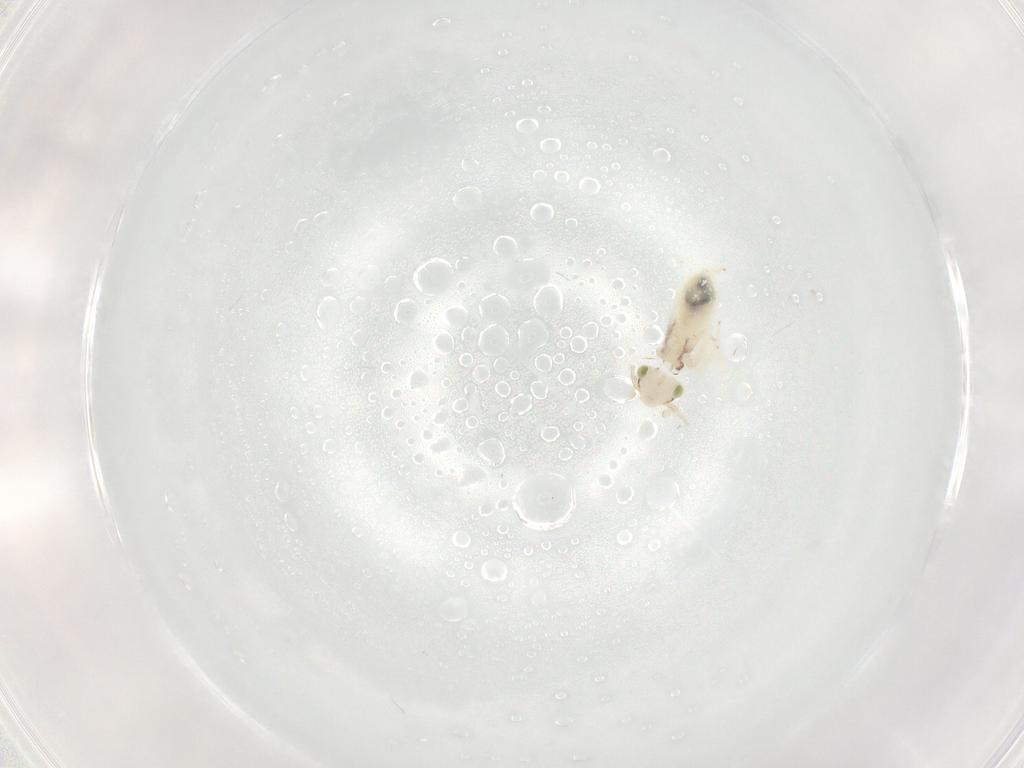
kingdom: Animalia
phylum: Arthropoda
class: Insecta
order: Psocodea
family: Lepidopsocidae
